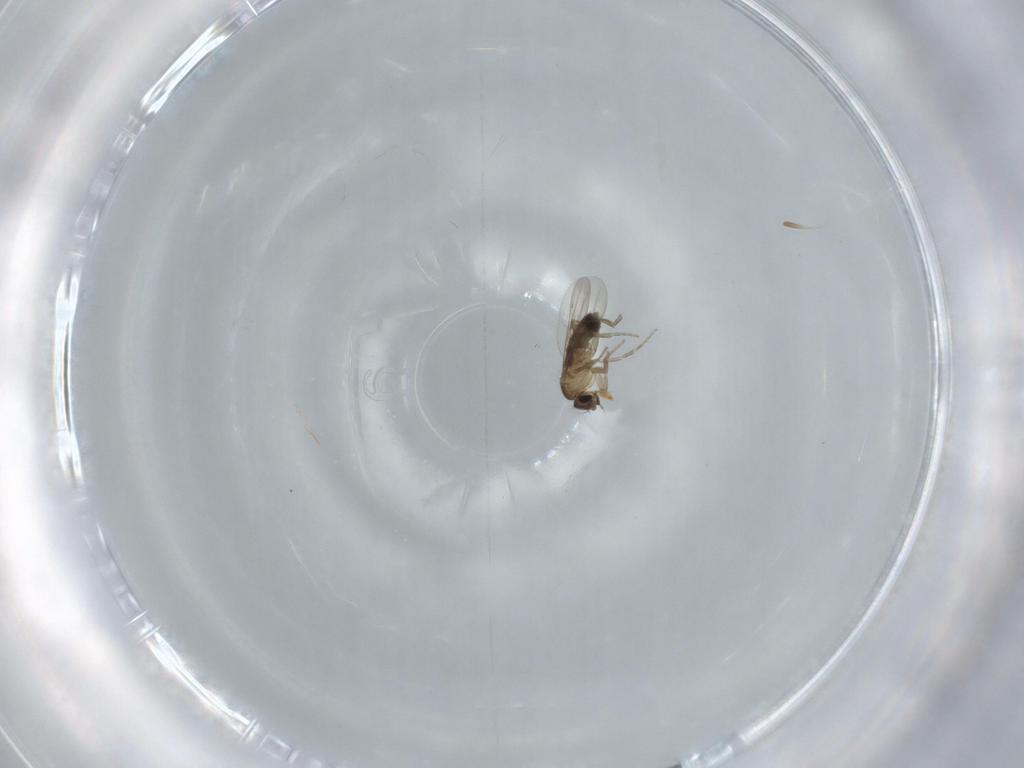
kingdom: Animalia
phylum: Arthropoda
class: Insecta
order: Diptera
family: Phoridae
